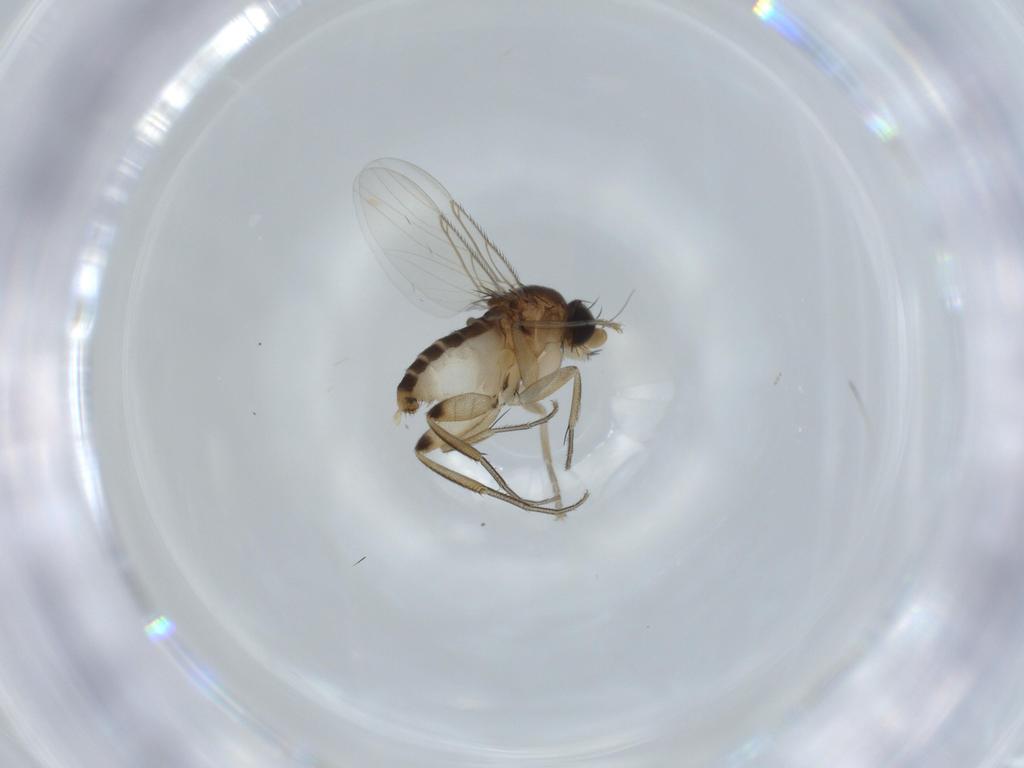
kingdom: Animalia
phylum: Arthropoda
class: Insecta
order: Diptera
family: Phoridae
